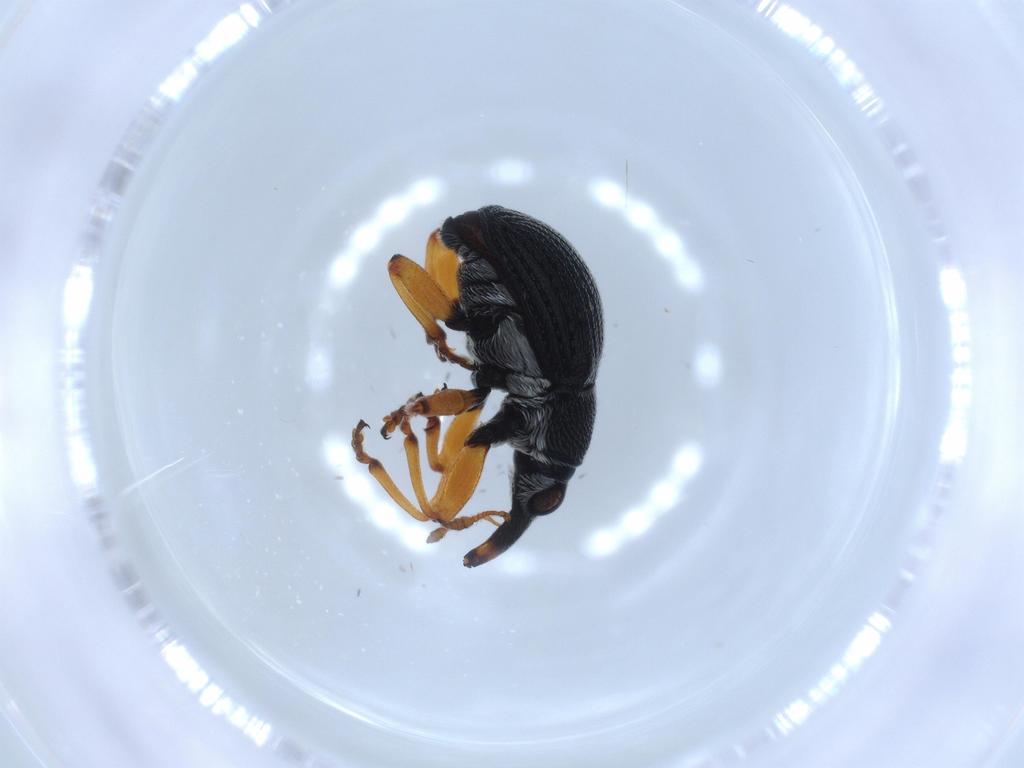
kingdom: Animalia
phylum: Arthropoda
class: Insecta
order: Coleoptera
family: Brentidae
